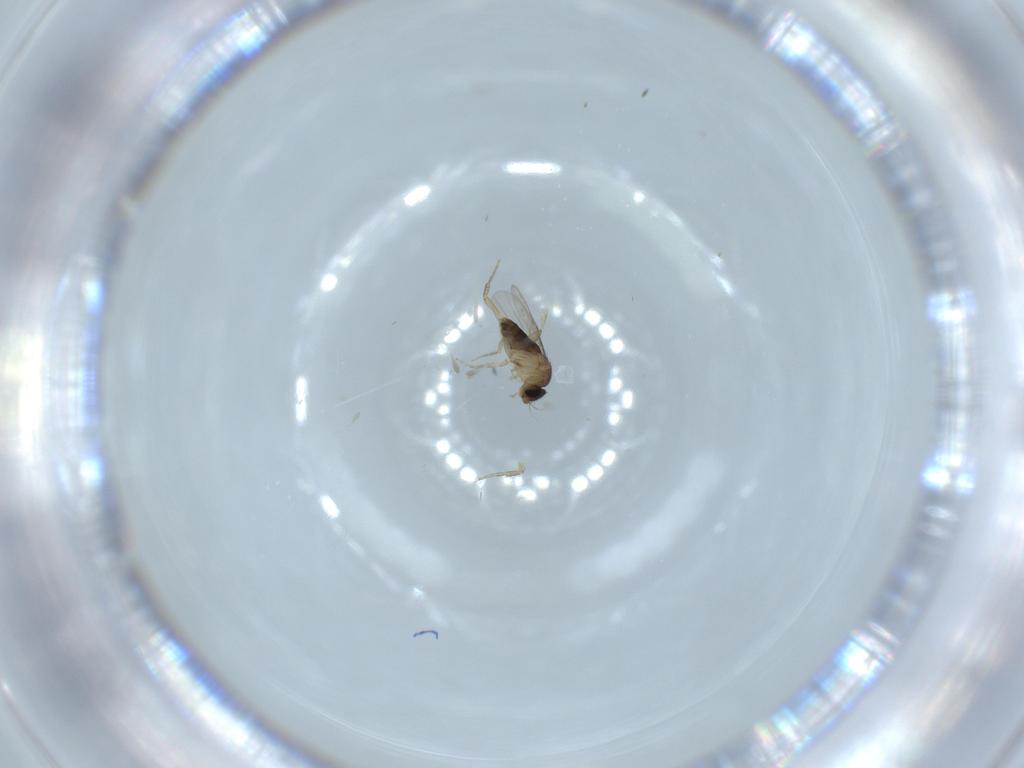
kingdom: Animalia
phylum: Arthropoda
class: Insecta
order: Diptera
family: Phoridae
